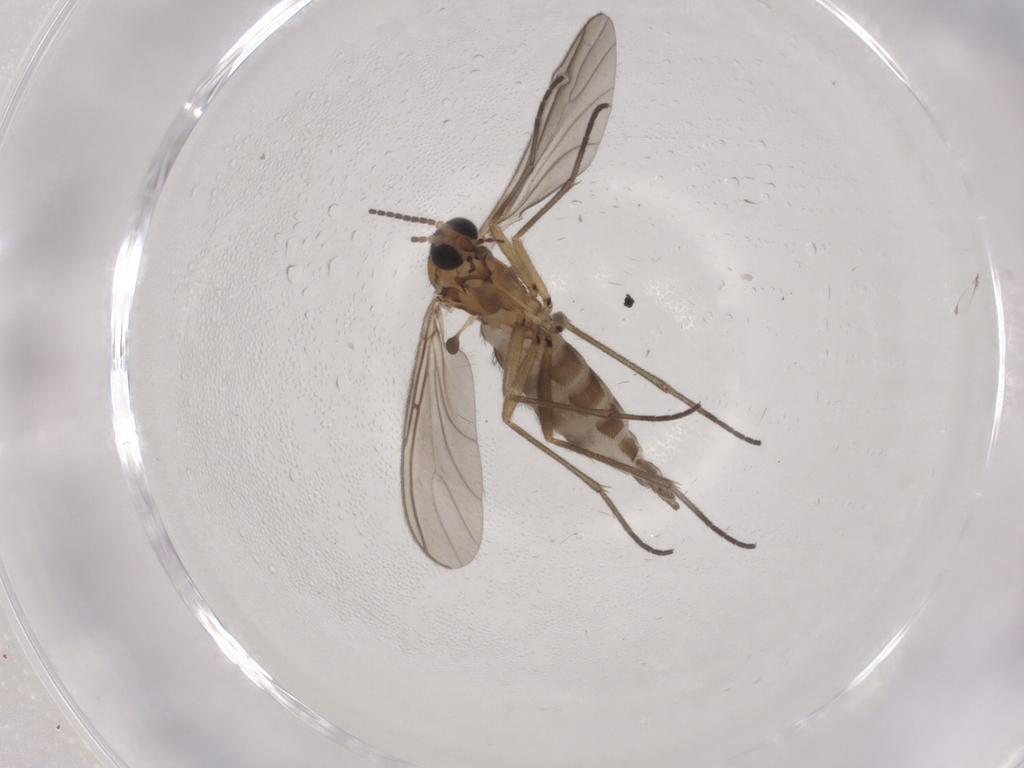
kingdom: Animalia
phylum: Arthropoda
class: Insecta
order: Diptera
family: Sciaridae
